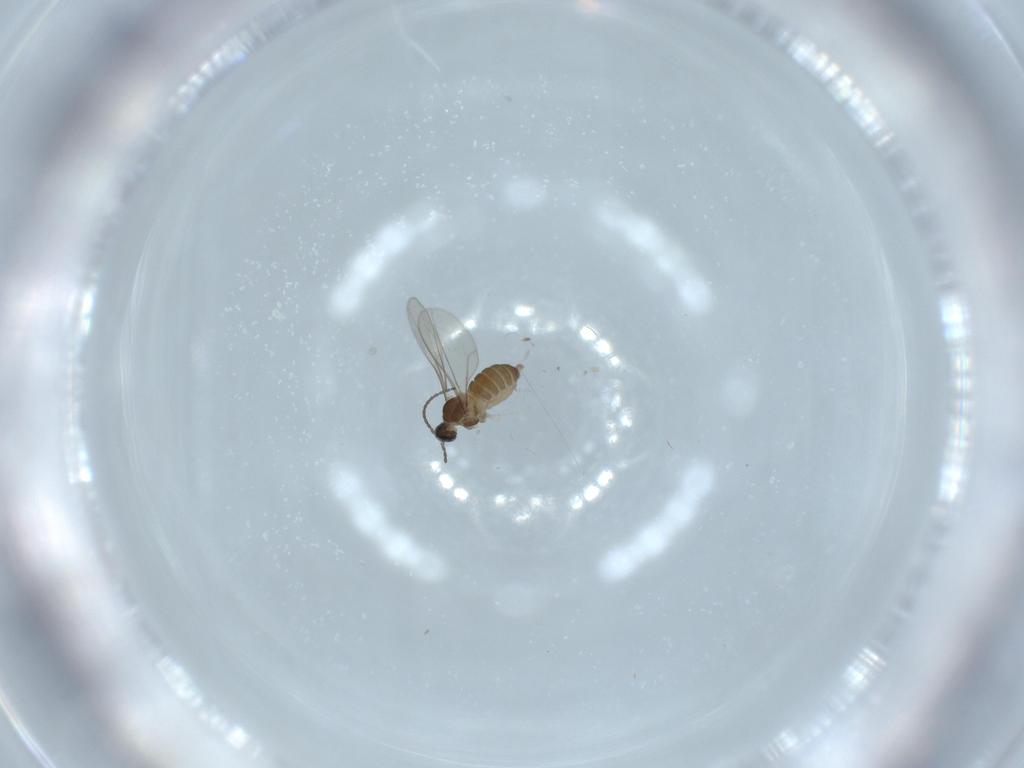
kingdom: Animalia
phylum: Arthropoda
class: Insecta
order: Diptera
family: Cecidomyiidae
